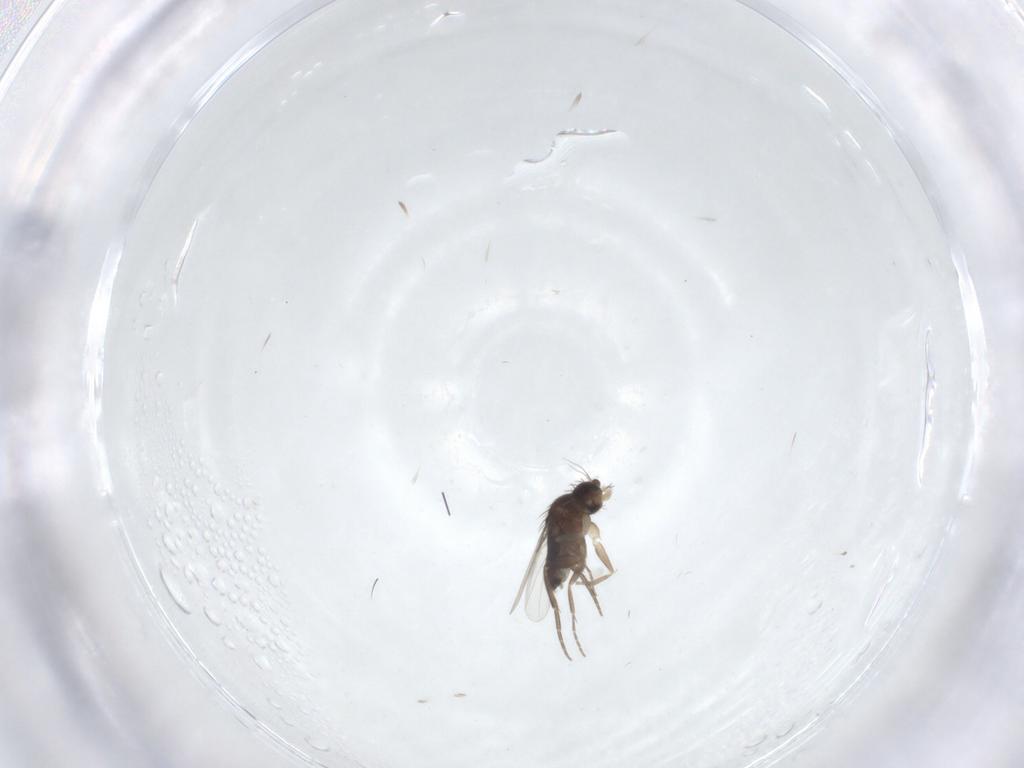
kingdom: Animalia
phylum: Arthropoda
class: Insecta
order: Diptera
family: Phoridae
